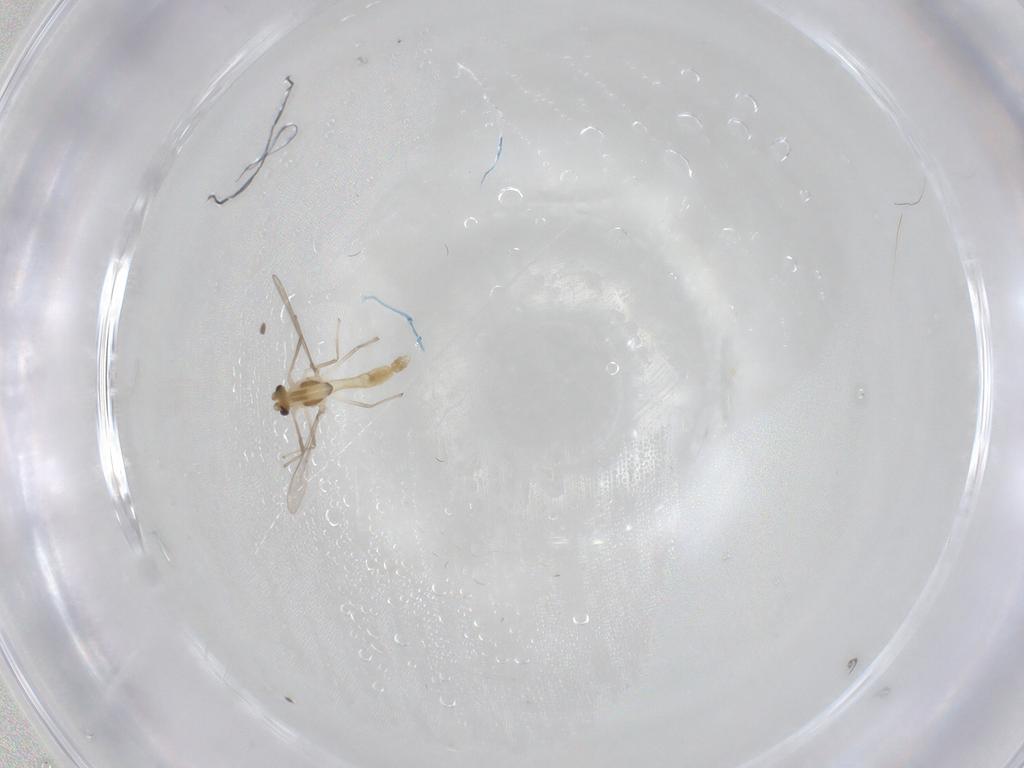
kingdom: Animalia
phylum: Arthropoda
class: Insecta
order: Diptera
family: Chironomidae
